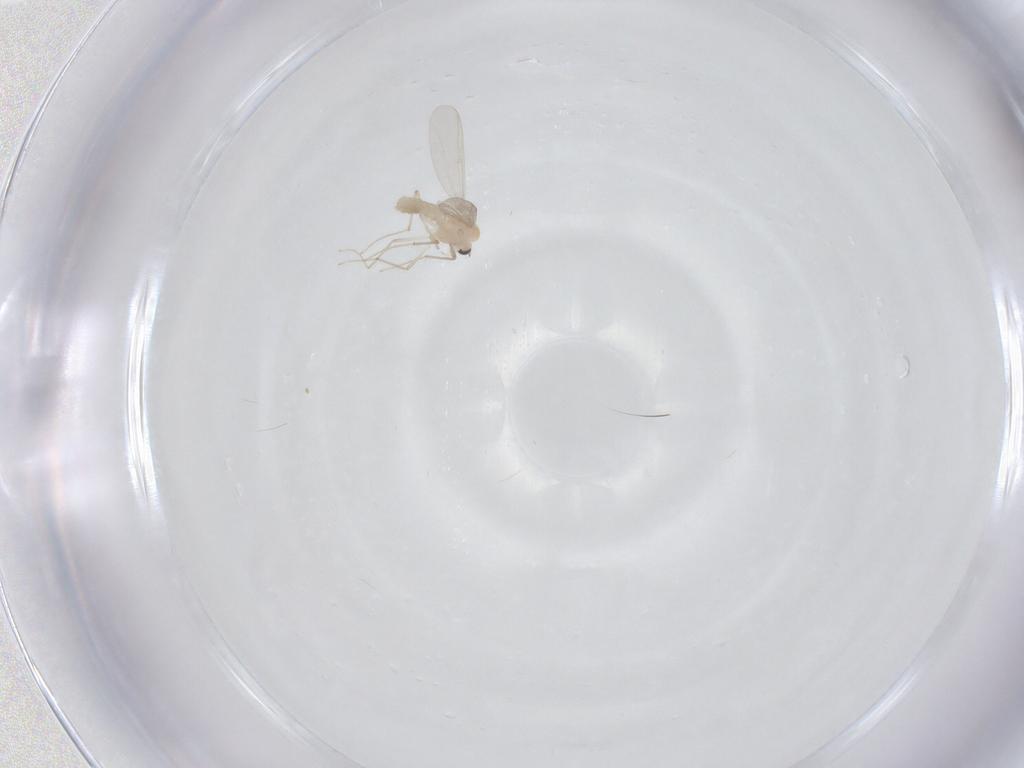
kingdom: Animalia
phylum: Arthropoda
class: Insecta
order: Diptera
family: Chironomidae
